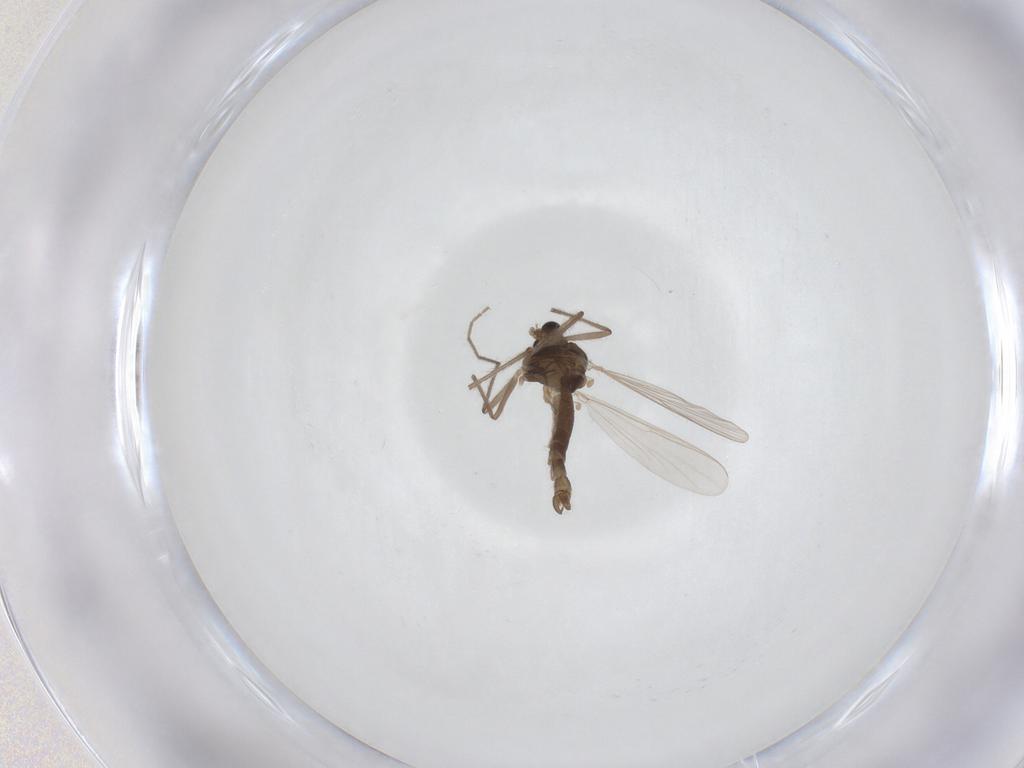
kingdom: Animalia
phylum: Arthropoda
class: Insecta
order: Diptera
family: Chironomidae
